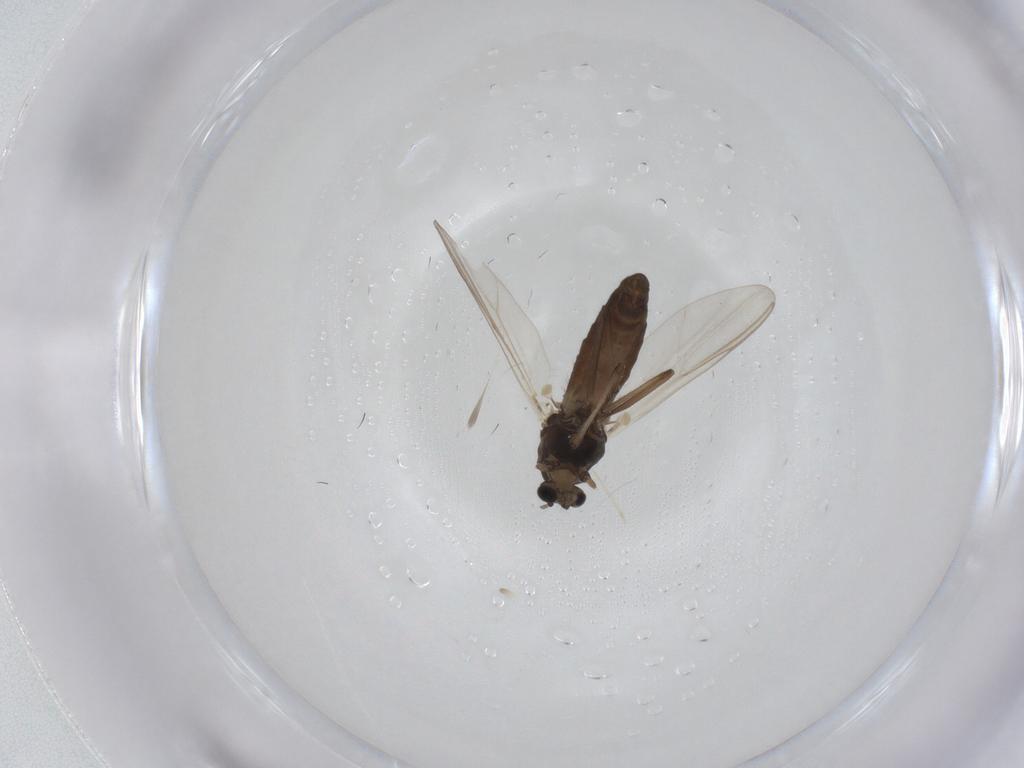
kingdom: Animalia
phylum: Arthropoda
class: Insecta
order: Diptera
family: Chironomidae
